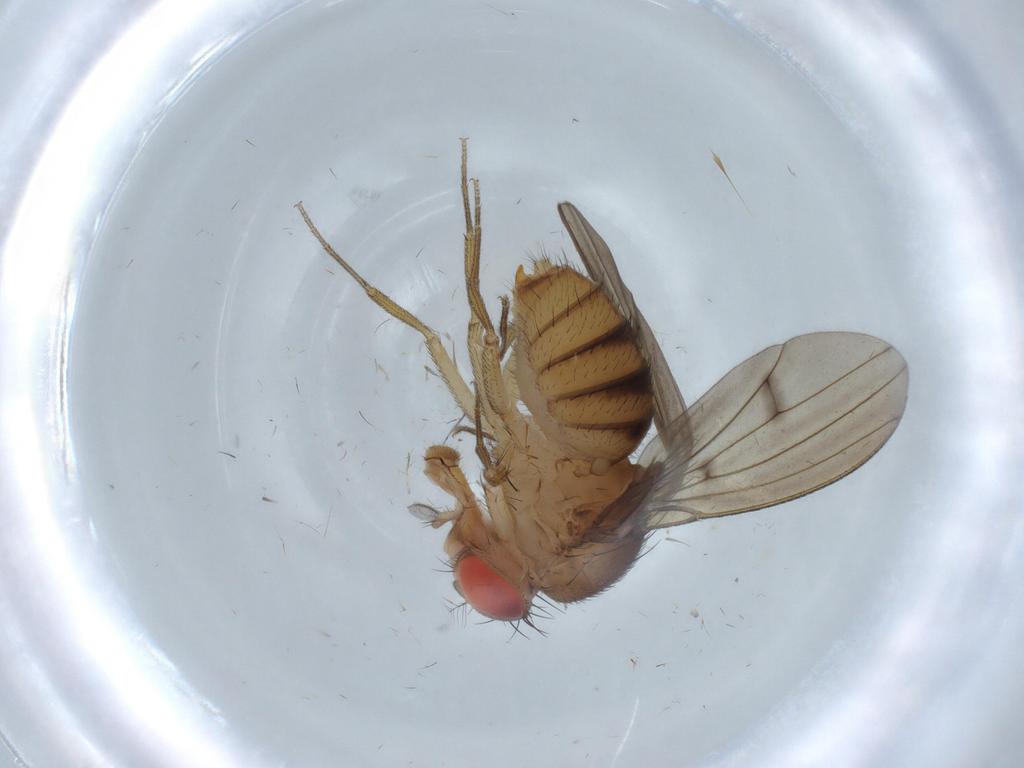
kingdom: Animalia
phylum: Arthropoda
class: Insecta
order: Diptera
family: Drosophilidae
